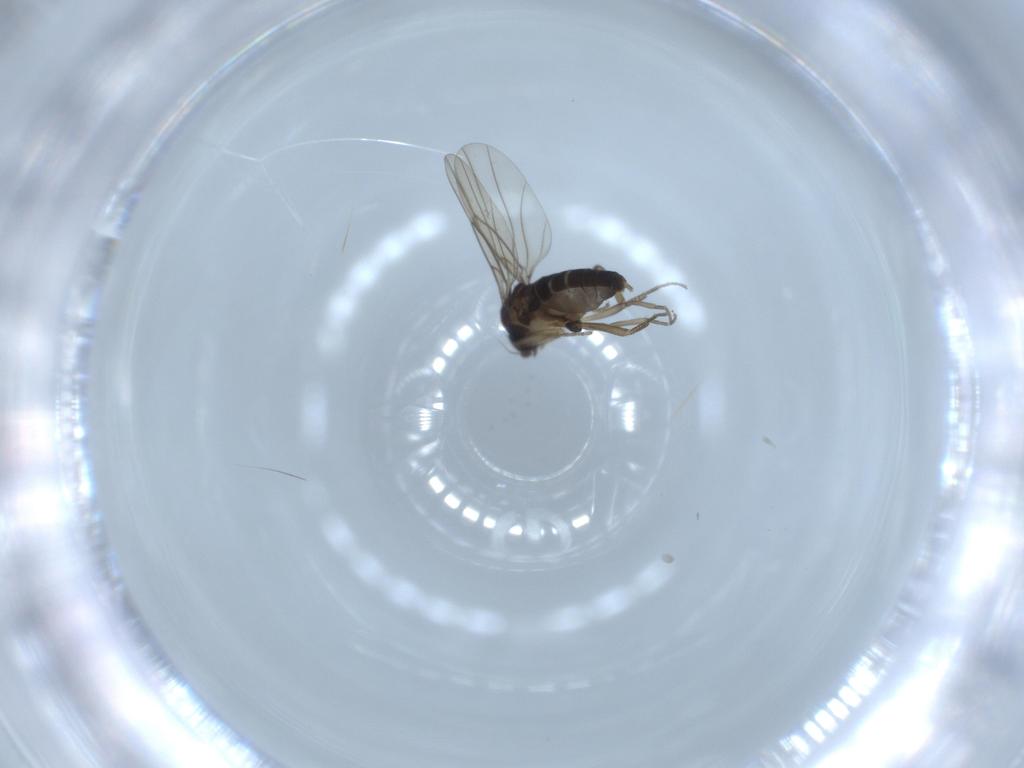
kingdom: Animalia
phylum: Arthropoda
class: Insecta
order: Diptera
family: Phoridae
